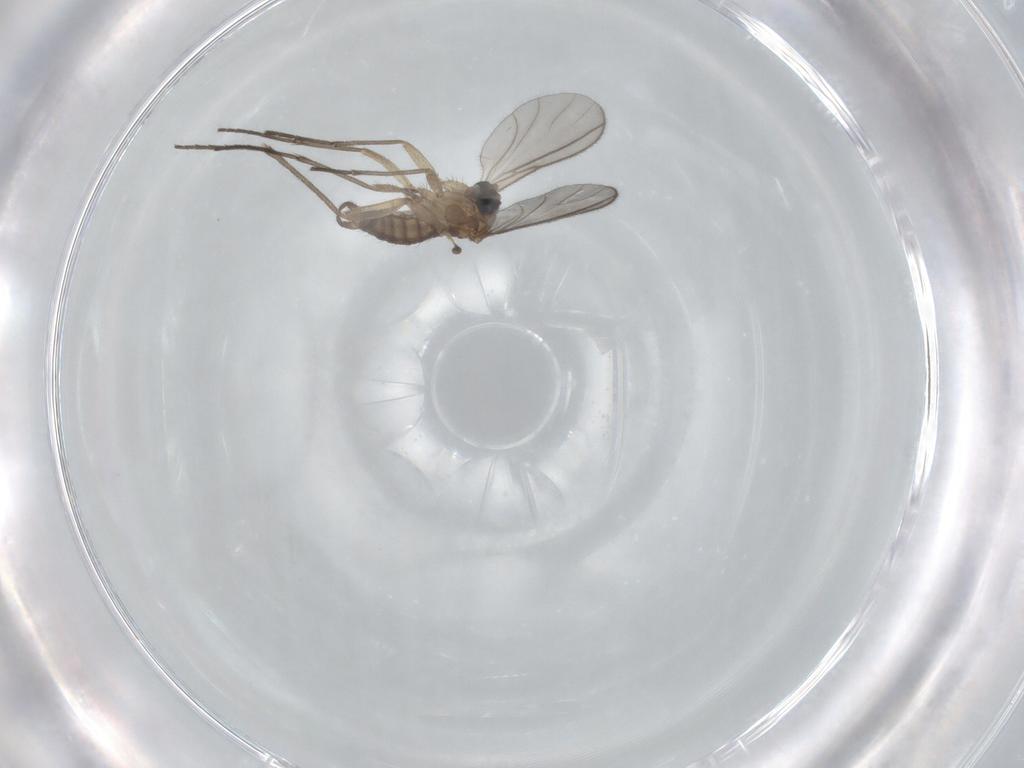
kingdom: Animalia
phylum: Arthropoda
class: Insecta
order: Diptera
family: Sciaridae
